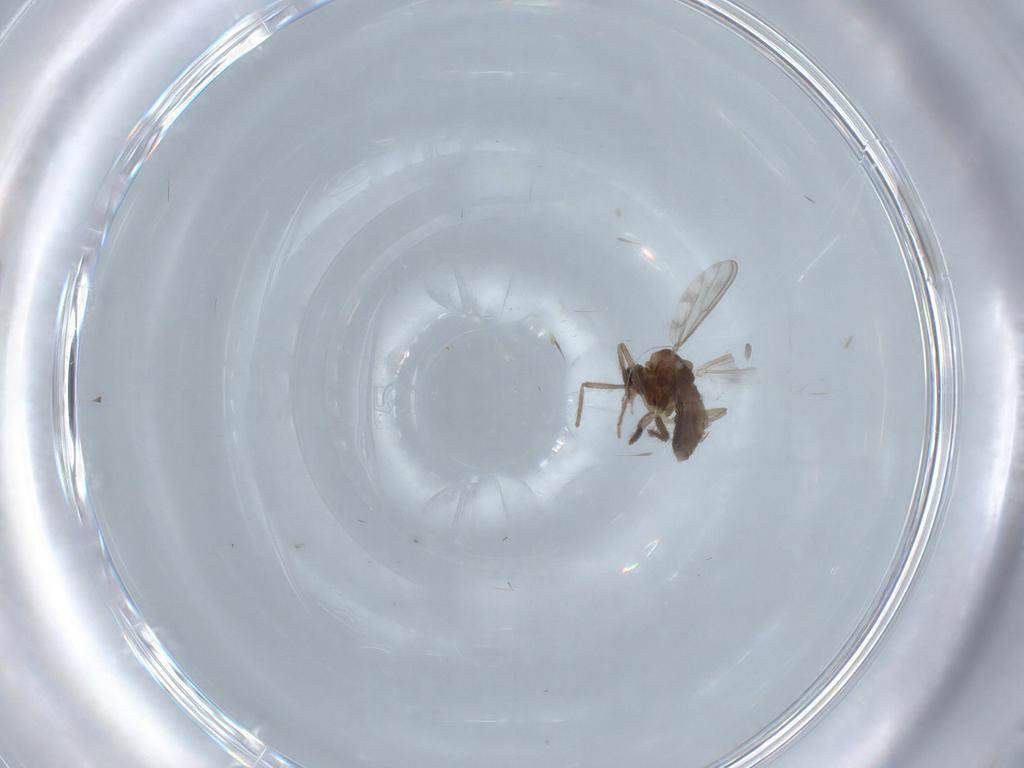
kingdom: Animalia
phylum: Arthropoda
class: Insecta
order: Diptera
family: Chironomidae
